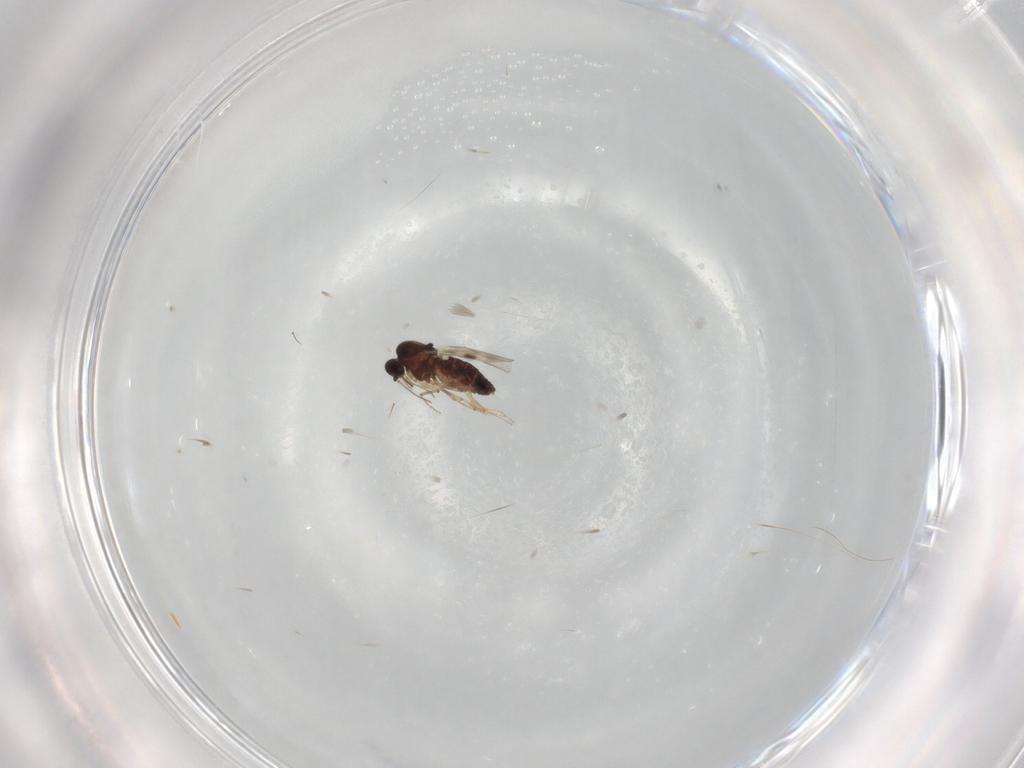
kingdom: Animalia
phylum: Arthropoda
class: Insecta
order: Diptera
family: Sciaridae
